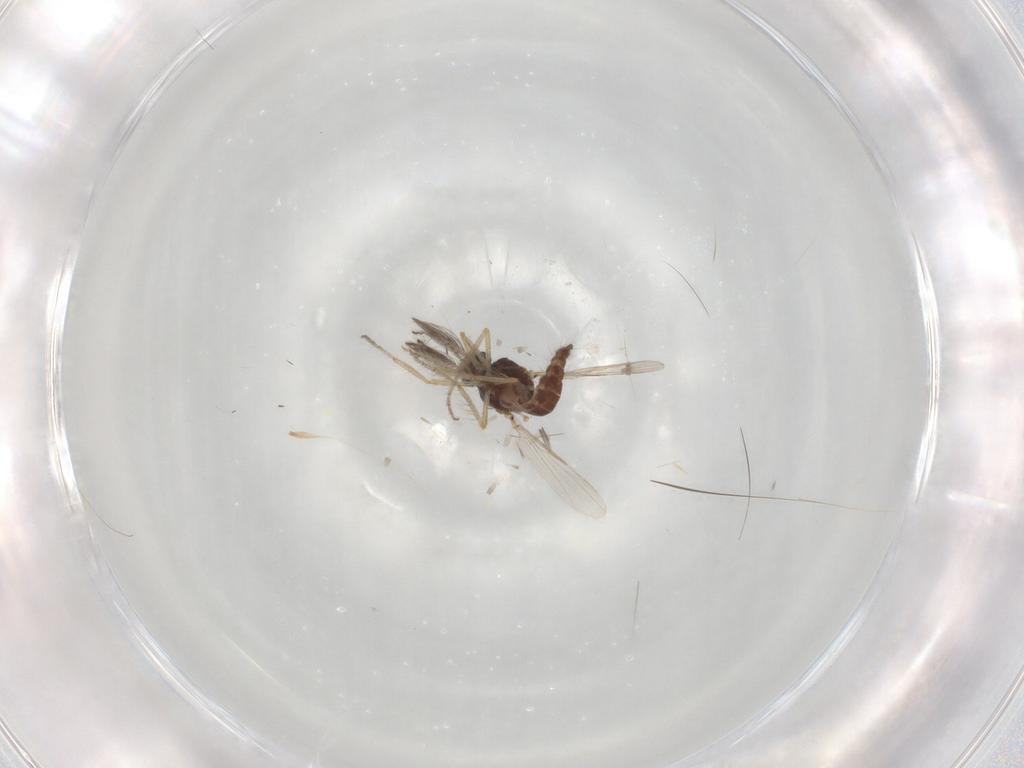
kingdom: Animalia
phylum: Arthropoda
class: Insecta
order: Diptera
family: Ceratopogonidae
